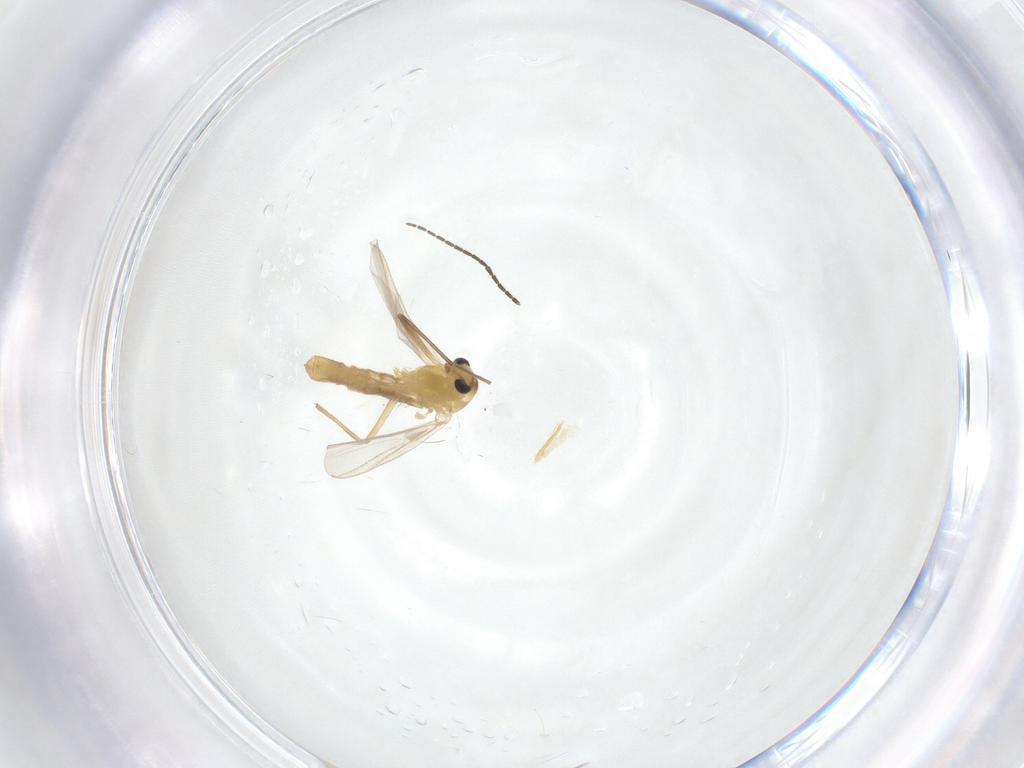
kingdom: Animalia
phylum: Arthropoda
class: Insecta
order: Diptera
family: Chironomidae
